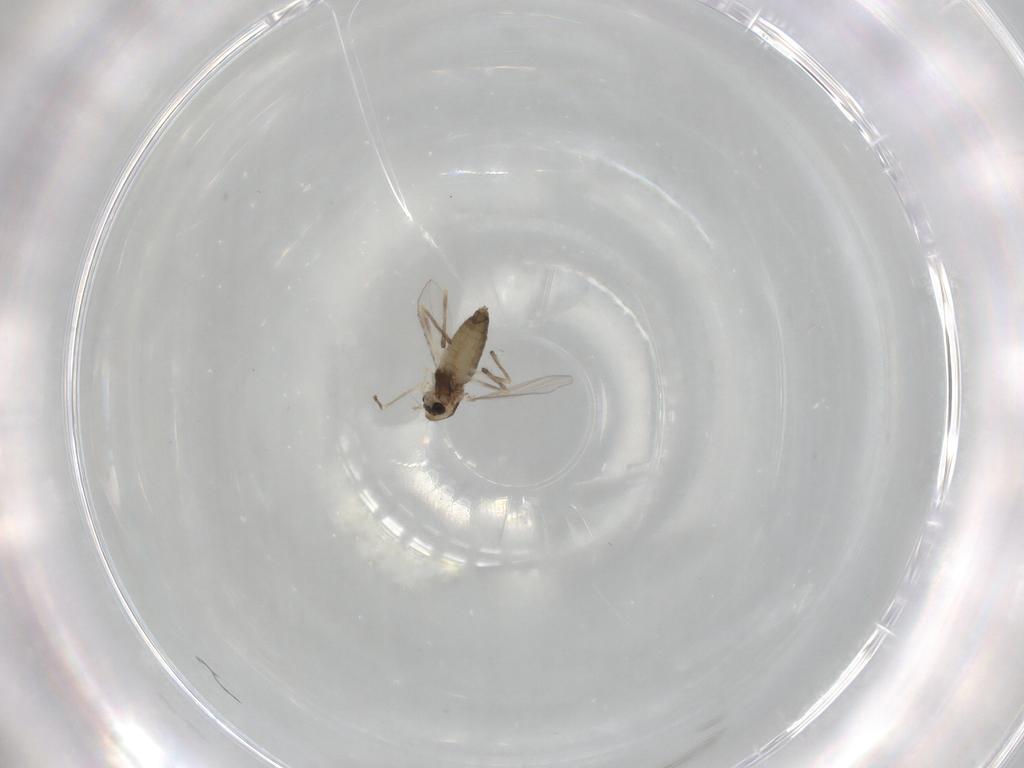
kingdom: Animalia
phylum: Arthropoda
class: Insecta
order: Diptera
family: Chironomidae
